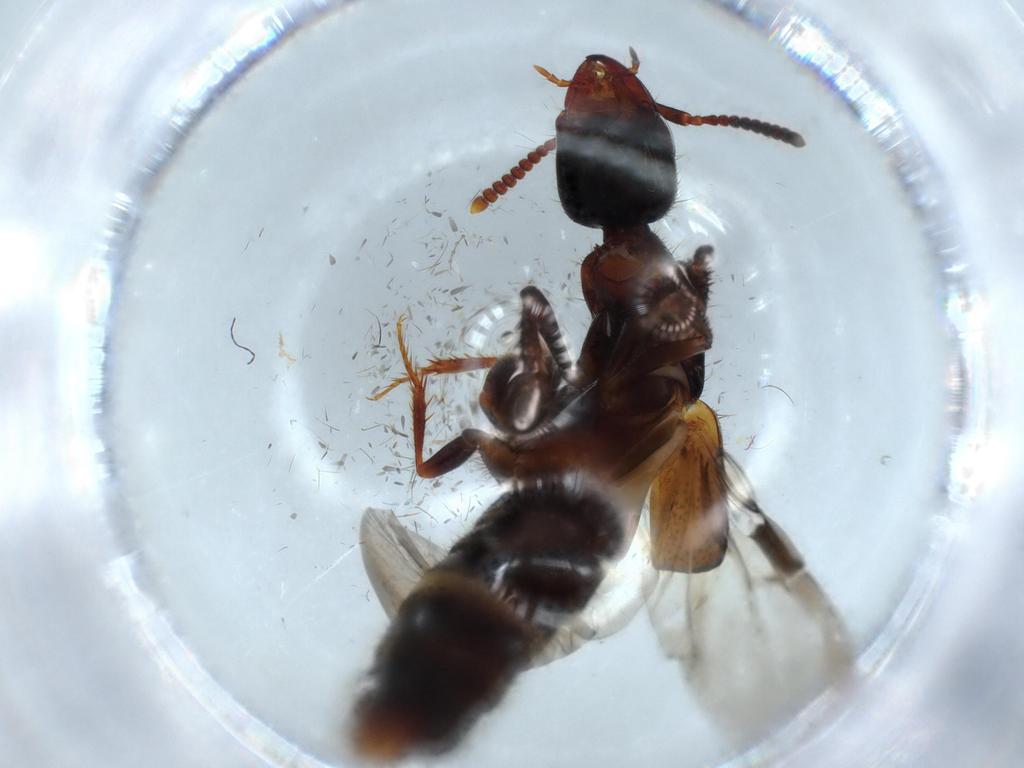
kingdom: Animalia
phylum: Arthropoda
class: Insecta
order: Coleoptera
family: Staphylinidae
